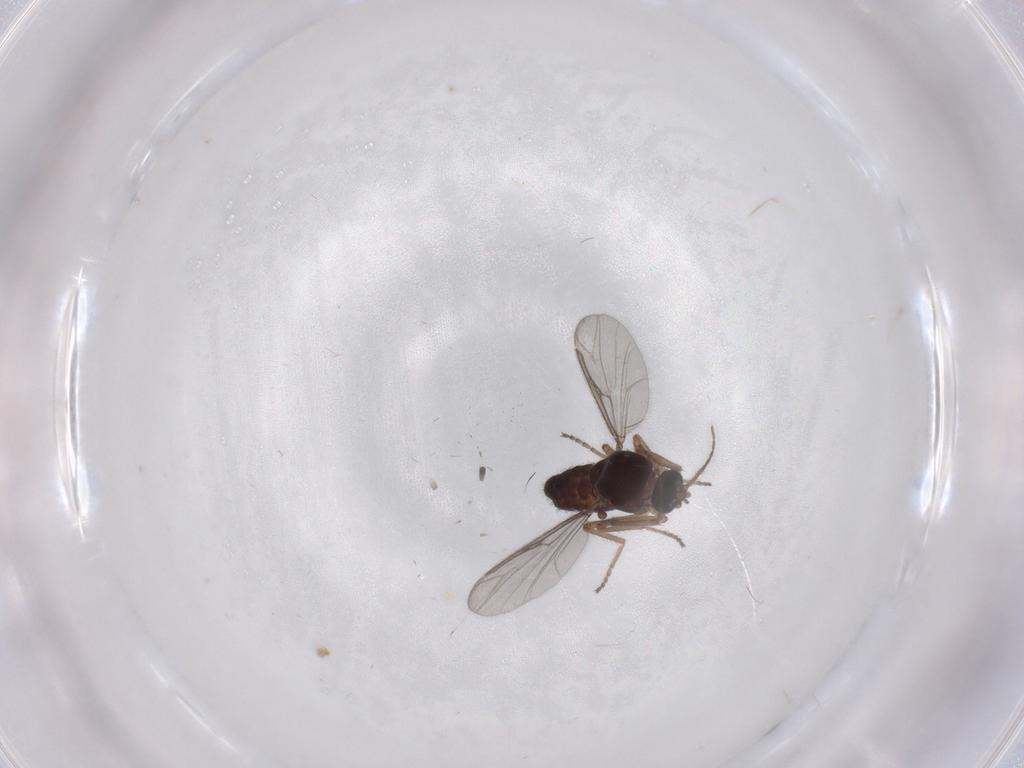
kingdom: Animalia
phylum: Arthropoda
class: Insecta
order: Diptera
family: Ceratopogonidae
